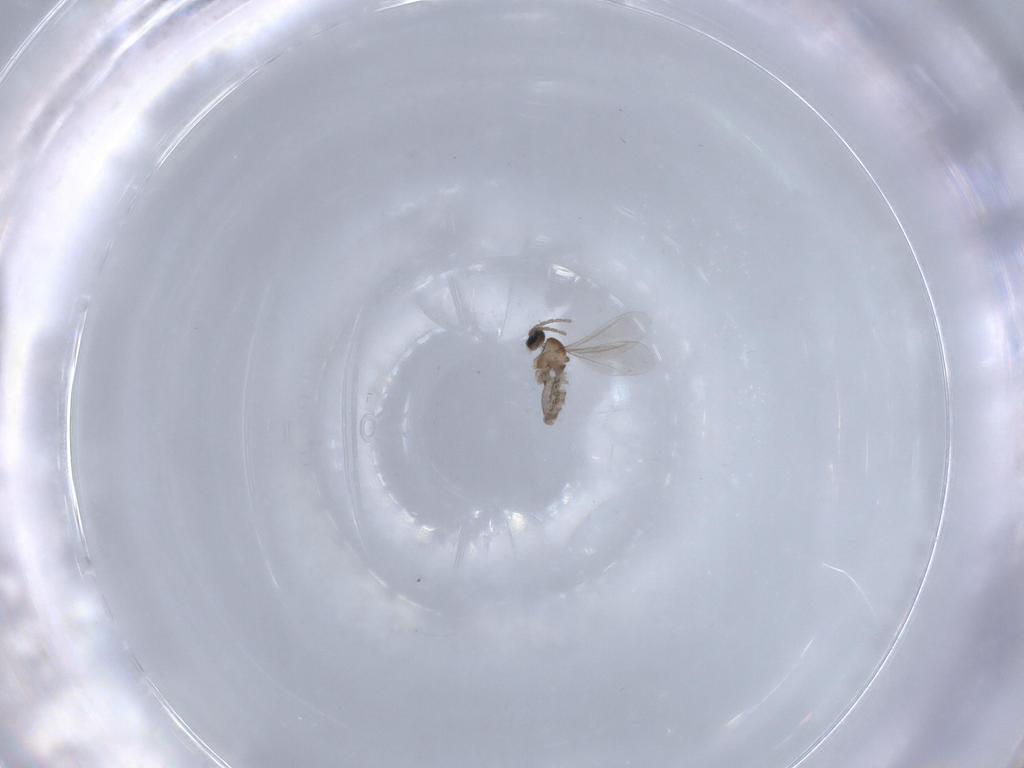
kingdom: Animalia
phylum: Arthropoda
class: Insecta
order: Diptera
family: Cecidomyiidae
